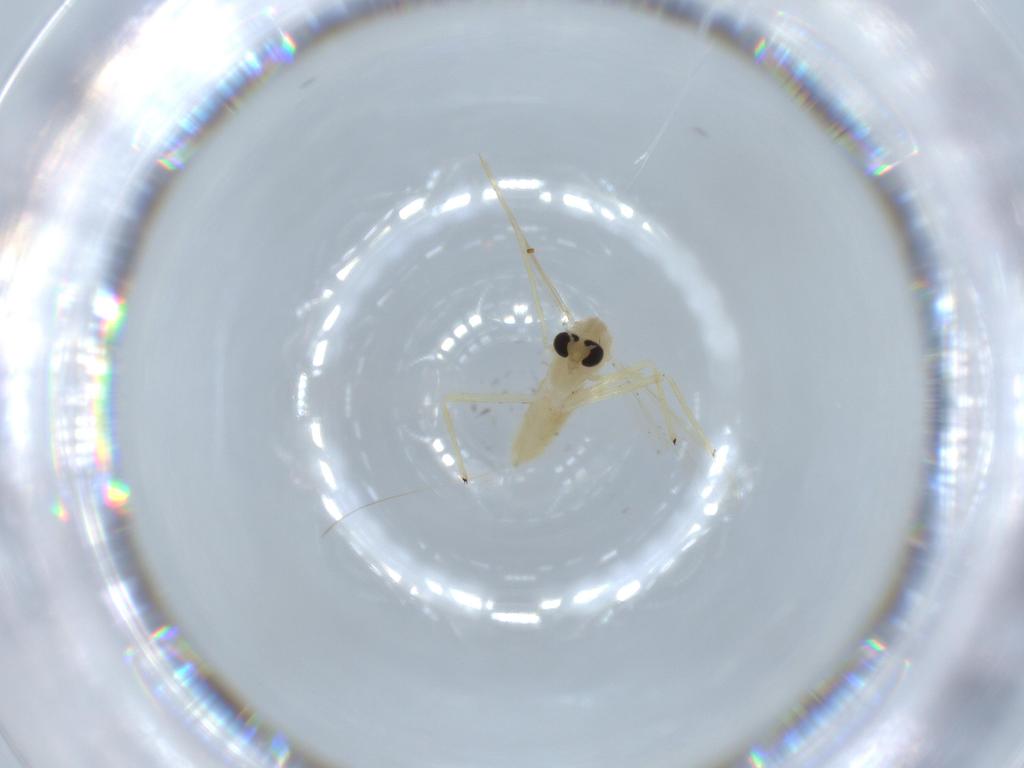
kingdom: Animalia
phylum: Arthropoda
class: Insecta
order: Diptera
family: Chironomidae
